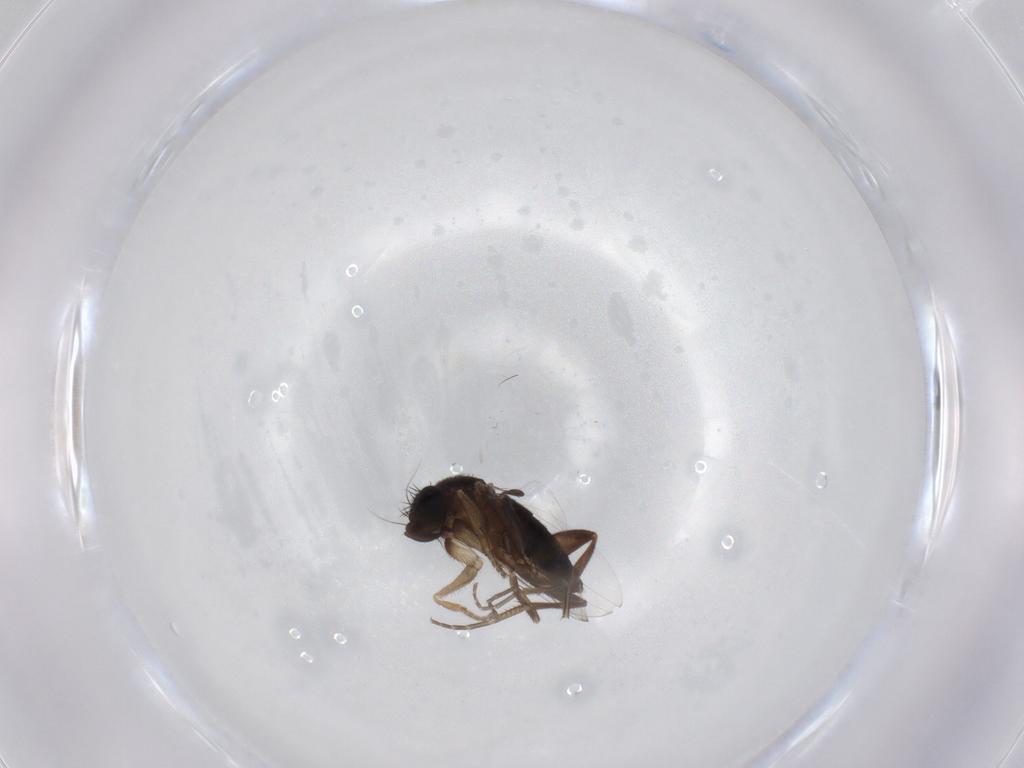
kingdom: Animalia
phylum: Arthropoda
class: Insecta
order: Diptera
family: Phoridae
